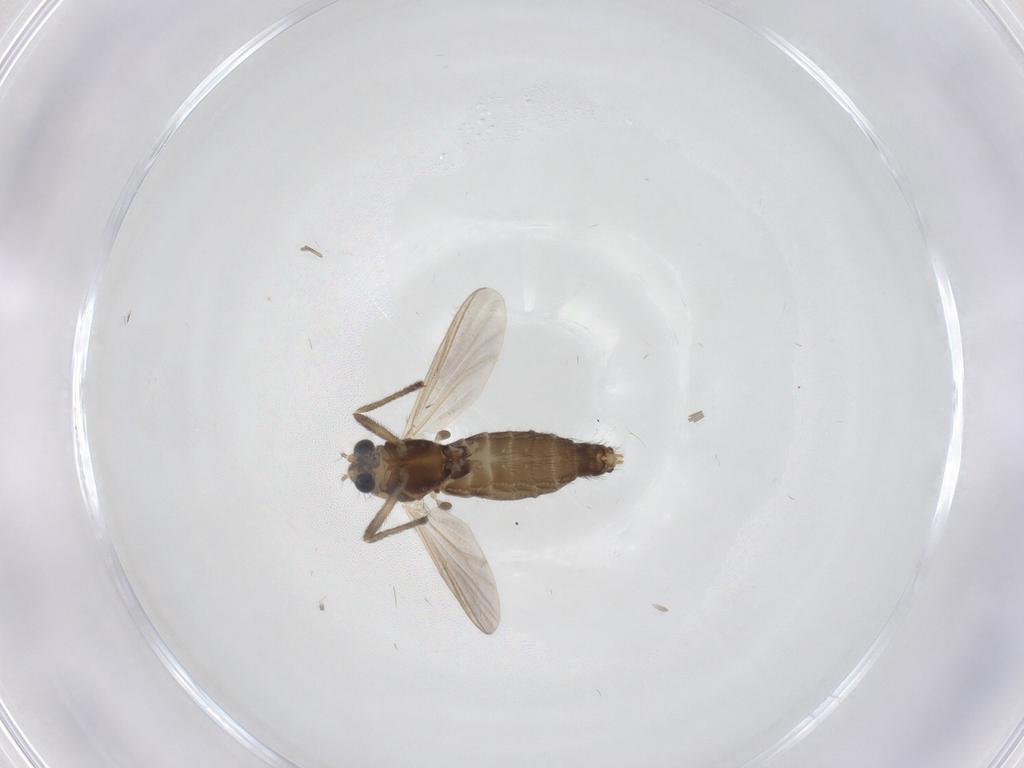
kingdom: Animalia
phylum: Arthropoda
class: Insecta
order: Diptera
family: Chironomidae
